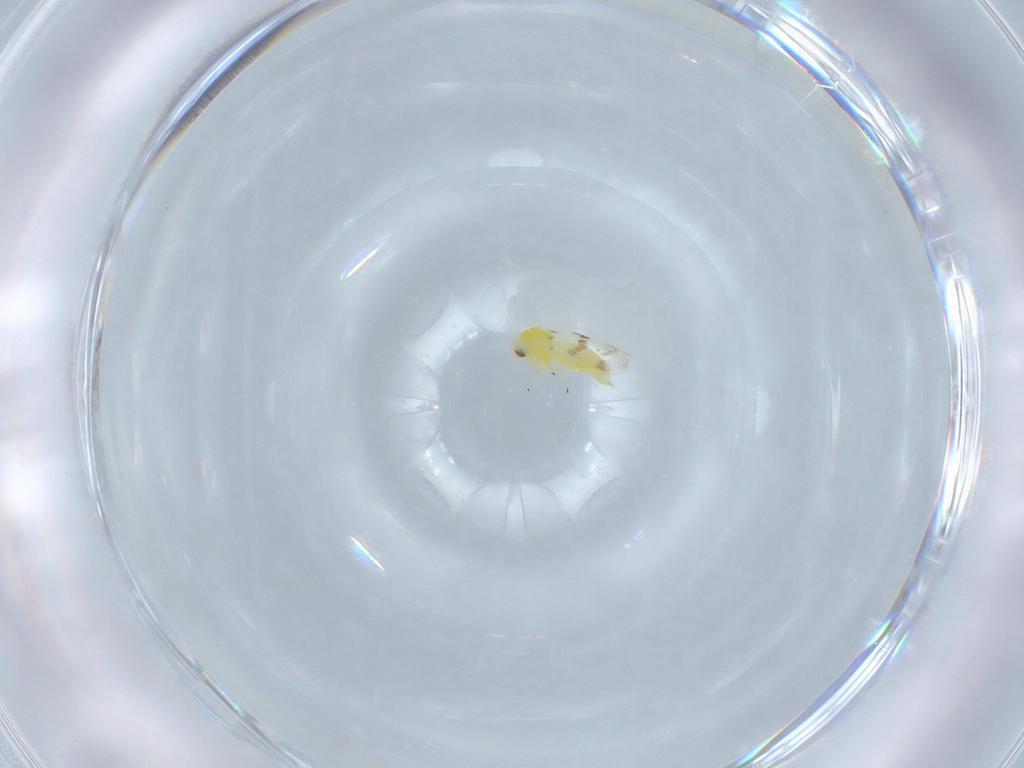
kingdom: Animalia
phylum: Arthropoda
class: Insecta
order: Hemiptera
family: Aleyrodidae
